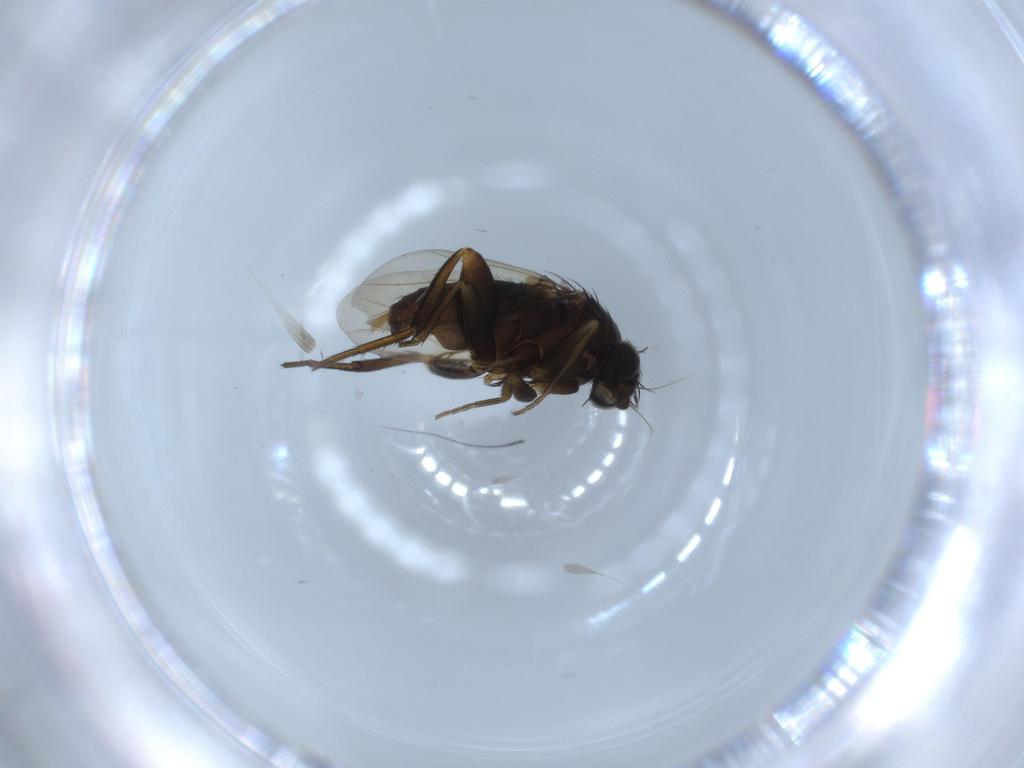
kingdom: Animalia
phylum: Arthropoda
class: Insecta
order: Diptera
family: Phoridae
